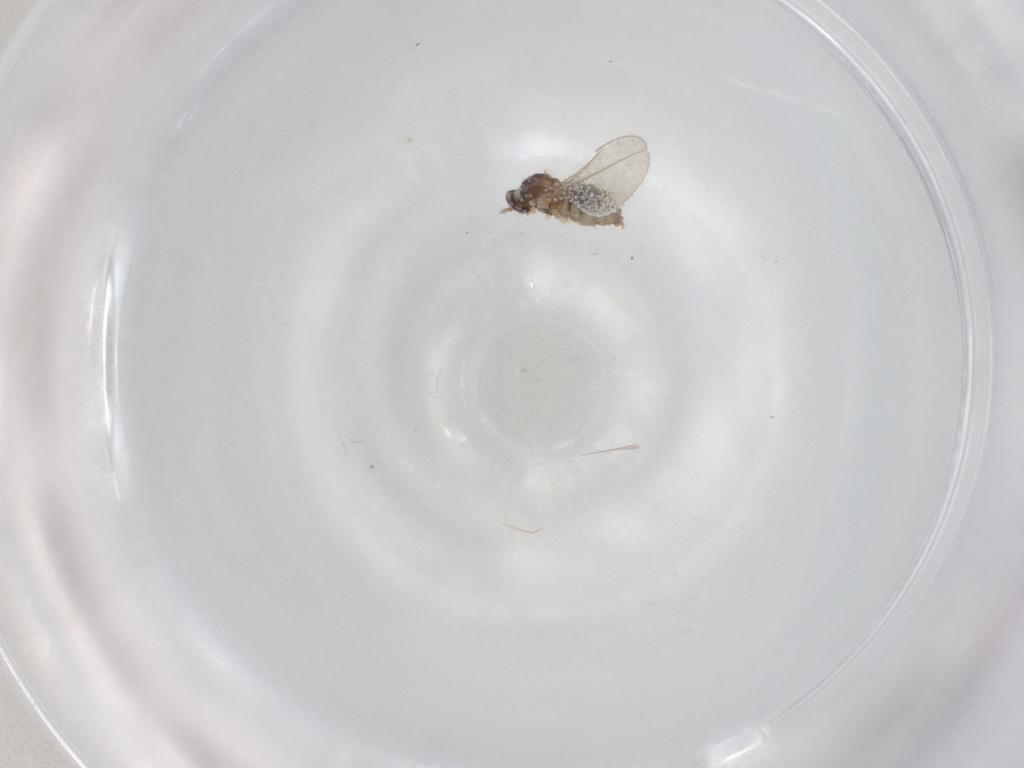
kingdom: Animalia
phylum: Arthropoda
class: Insecta
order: Diptera
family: Cecidomyiidae
